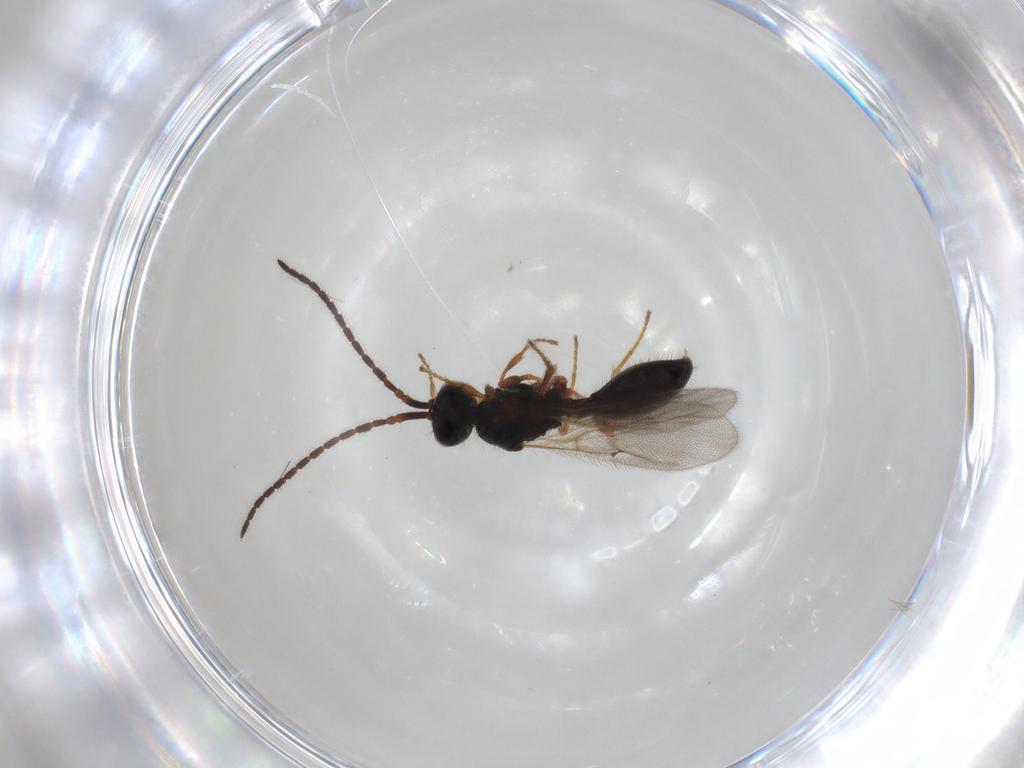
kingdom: Animalia
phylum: Arthropoda
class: Insecta
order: Hymenoptera
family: Diapriidae
